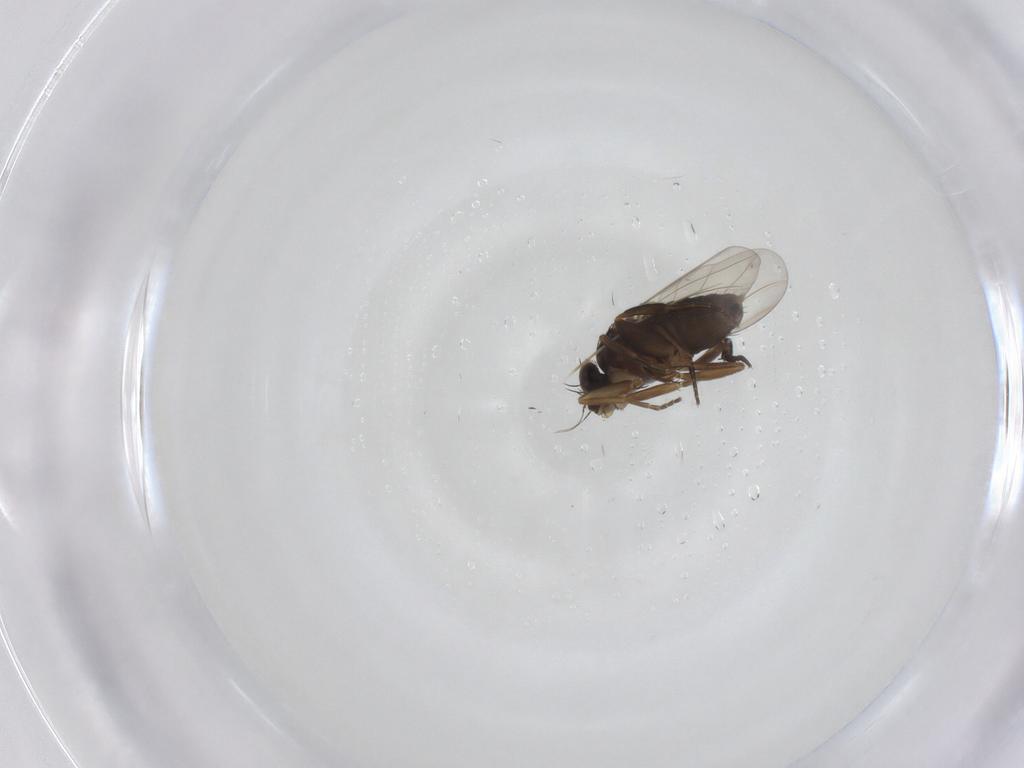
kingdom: Animalia
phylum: Arthropoda
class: Insecta
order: Diptera
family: Phoridae
